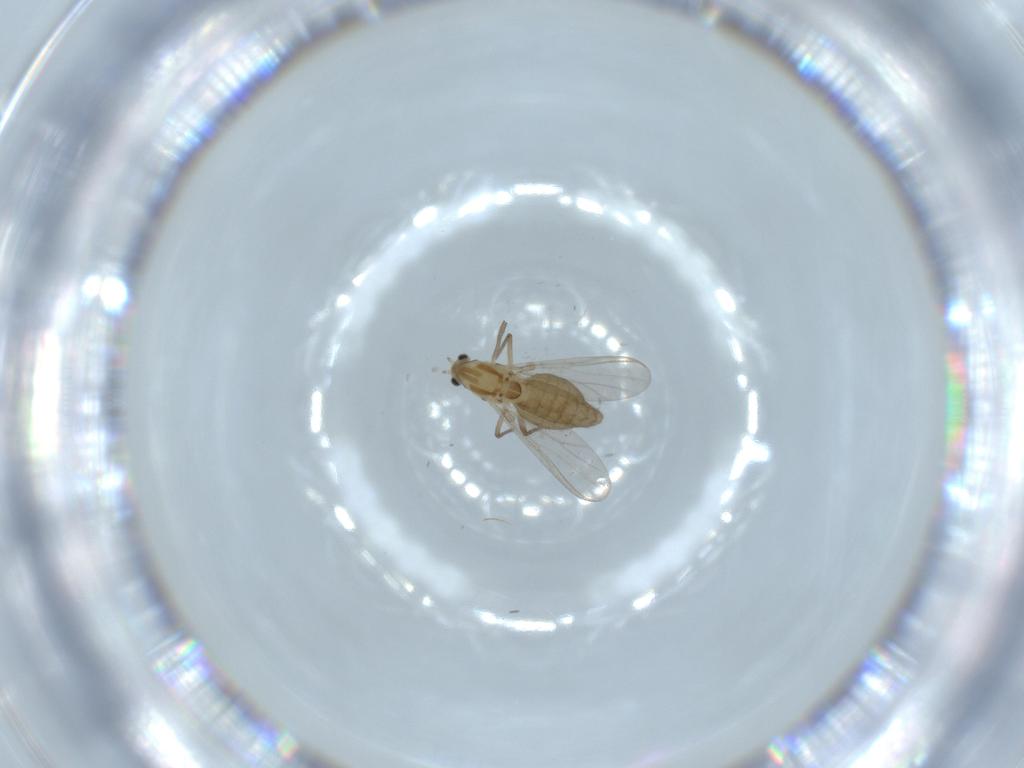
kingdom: Animalia
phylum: Arthropoda
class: Insecta
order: Diptera
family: Chironomidae
